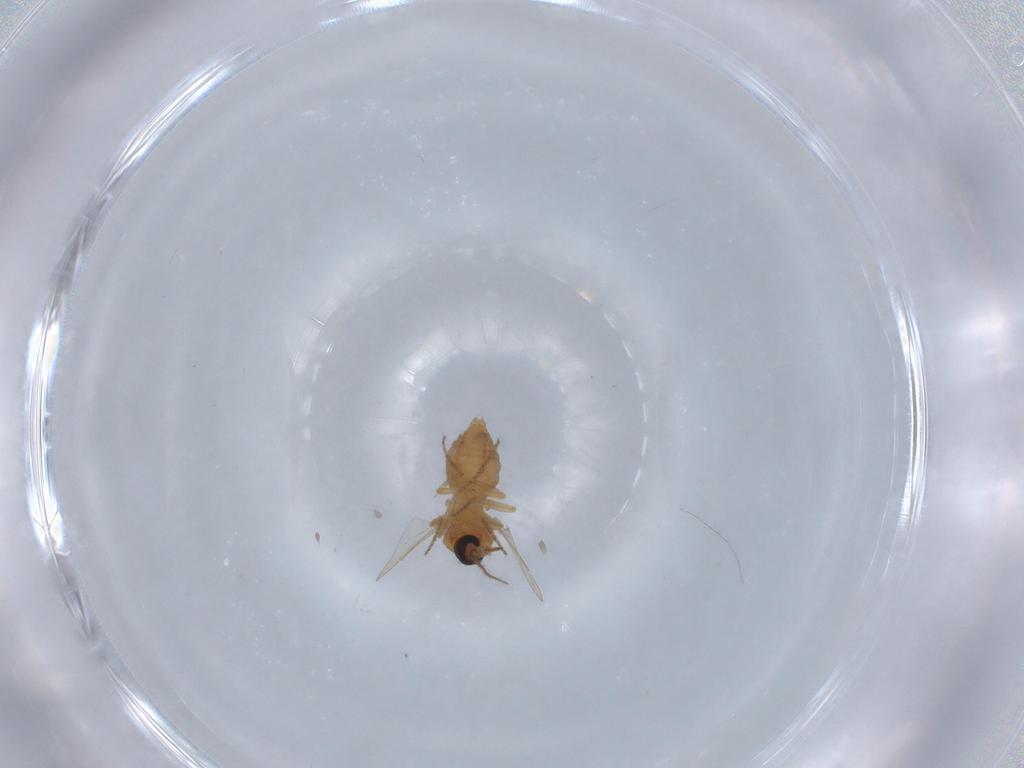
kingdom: Animalia
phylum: Arthropoda
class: Insecta
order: Diptera
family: Ceratopogonidae
